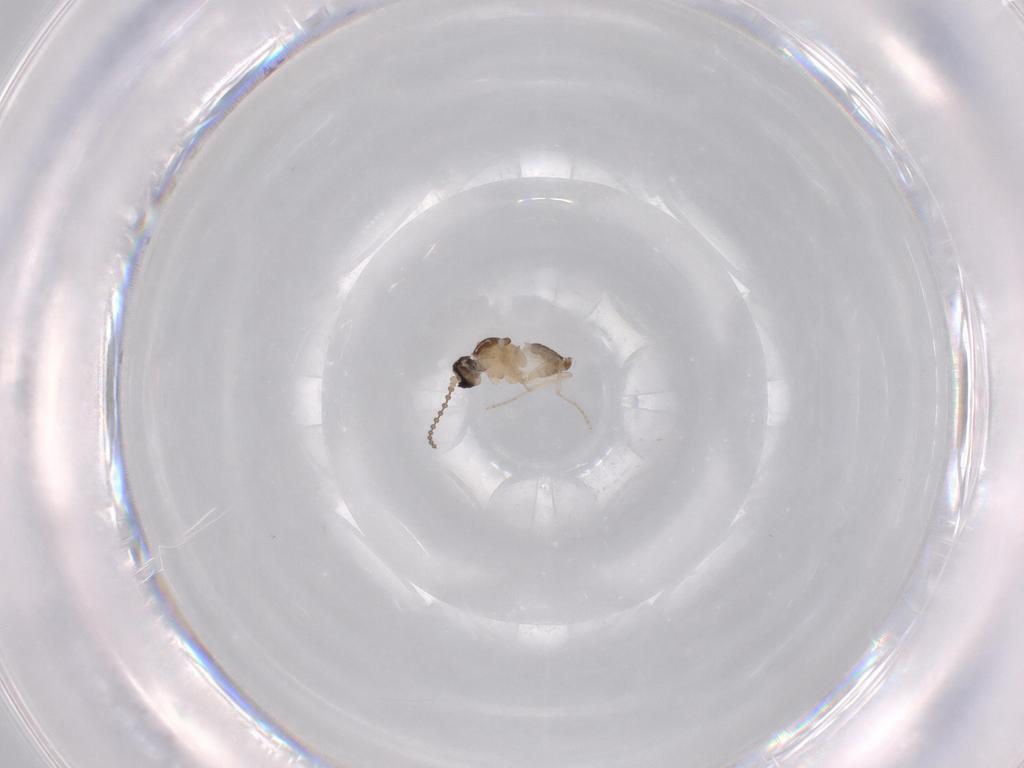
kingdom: Animalia
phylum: Arthropoda
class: Insecta
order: Diptera
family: Cecidomyiidae
